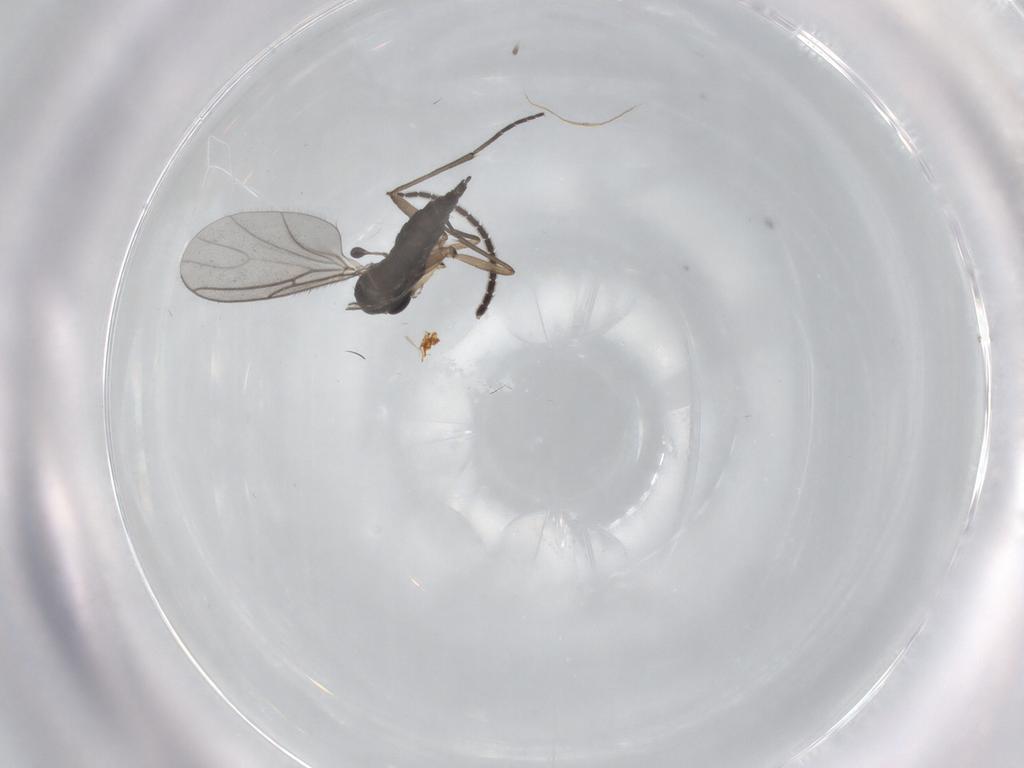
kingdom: Animalia
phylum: Arthropoda
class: Insecta
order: Diptera
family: Sciaridae
